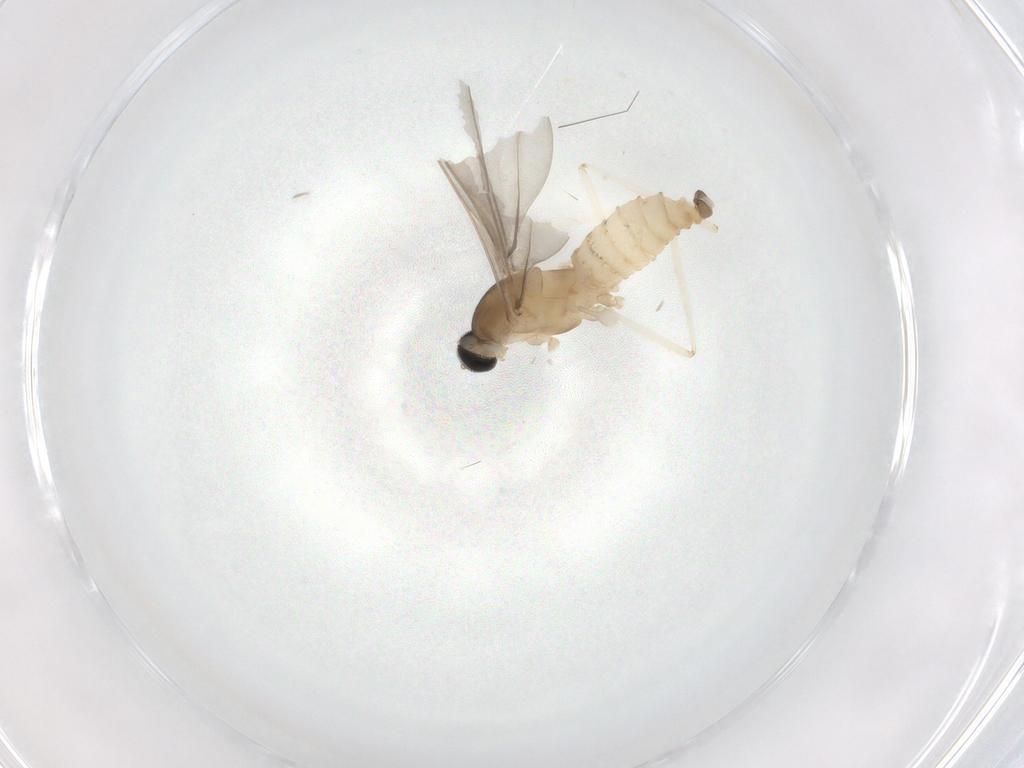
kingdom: Animalia
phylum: Arthropoda
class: Insecta
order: Diptera
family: Cecidomyiidae
